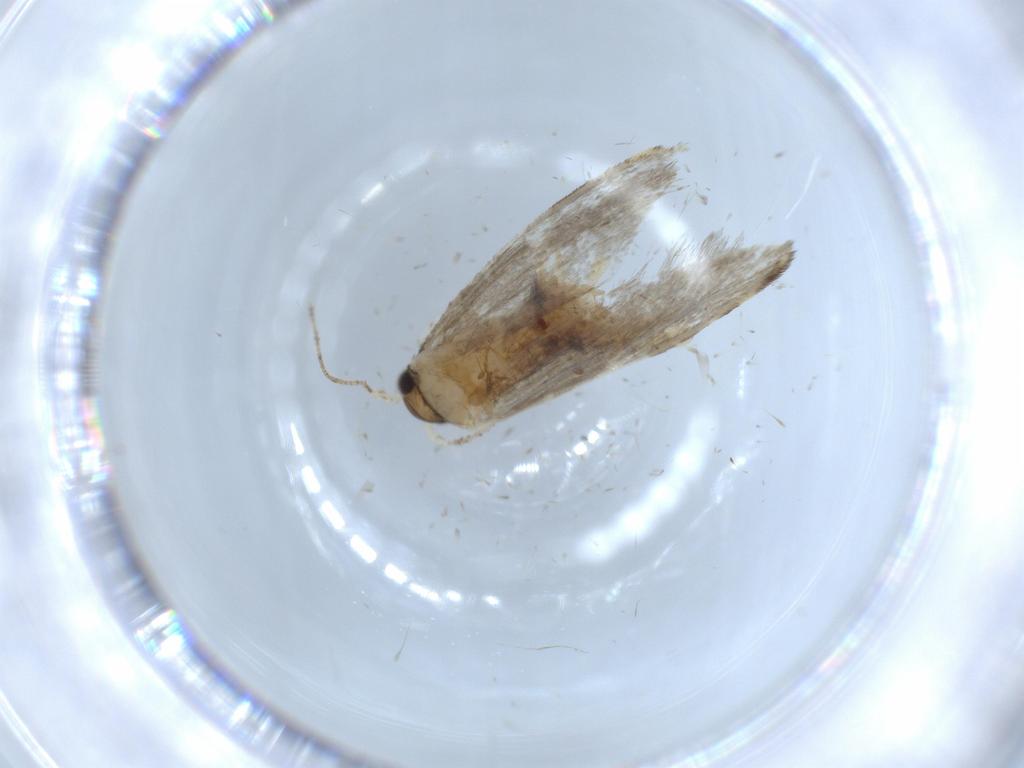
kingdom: Animalia
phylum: Arthropoda
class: Insecta
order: Lepidoptera
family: Tineidae
